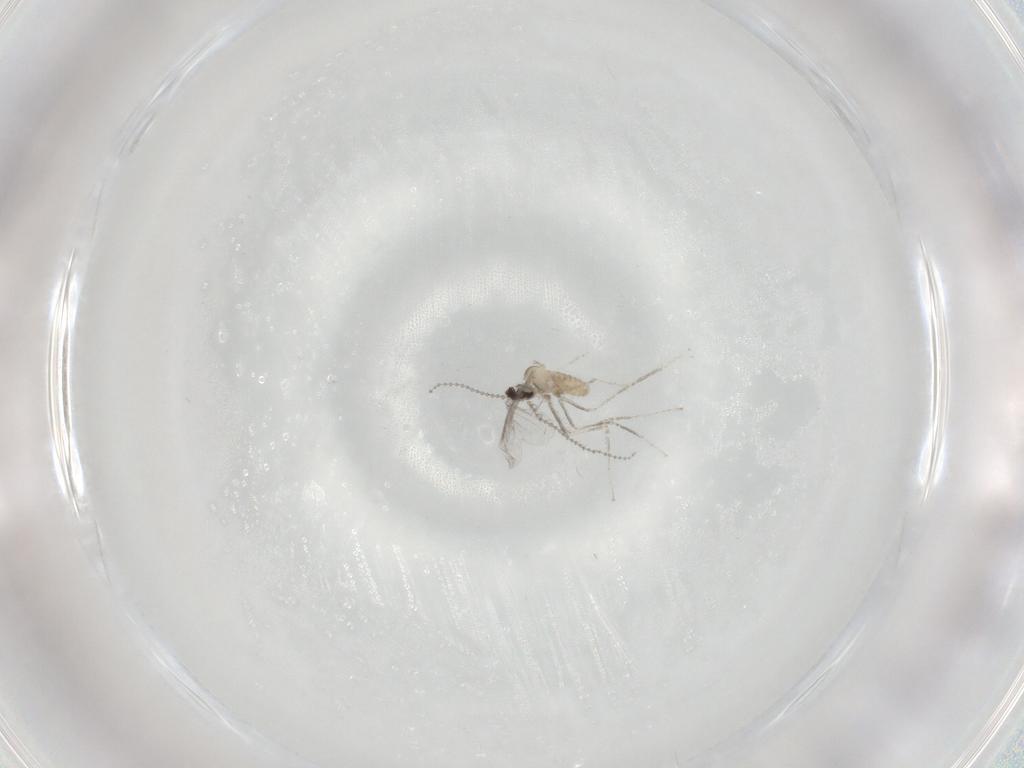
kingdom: Animalia
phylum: Arthropoda
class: Insecta
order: Diptera
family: Cecidomyiidae
